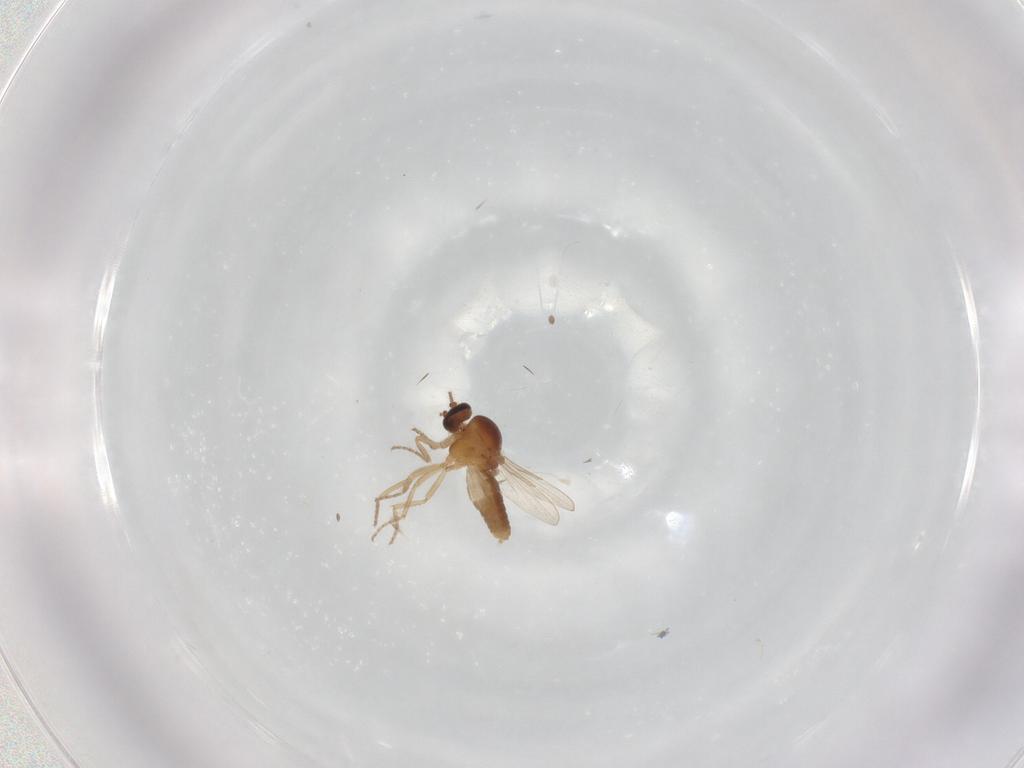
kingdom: Animalia
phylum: Arthropoda
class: Insecta
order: Diptera
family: Ceratopogonidae
